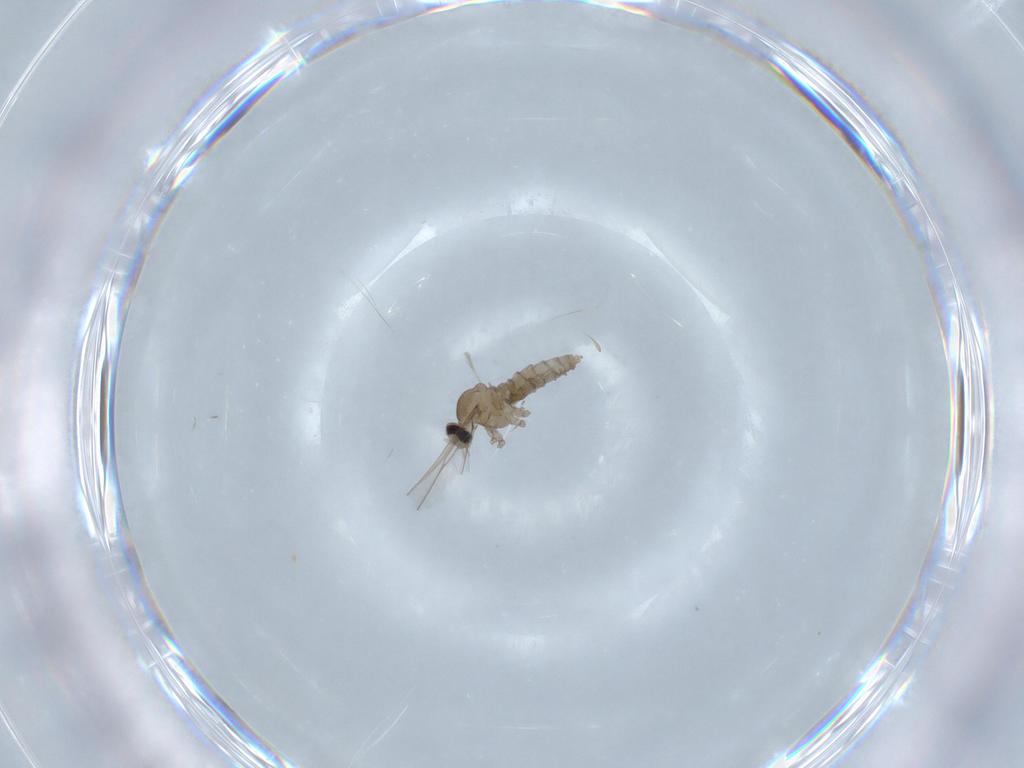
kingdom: Animalia
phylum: Arthropoda
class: Insecta
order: Diptera
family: Cecidomyiidae
